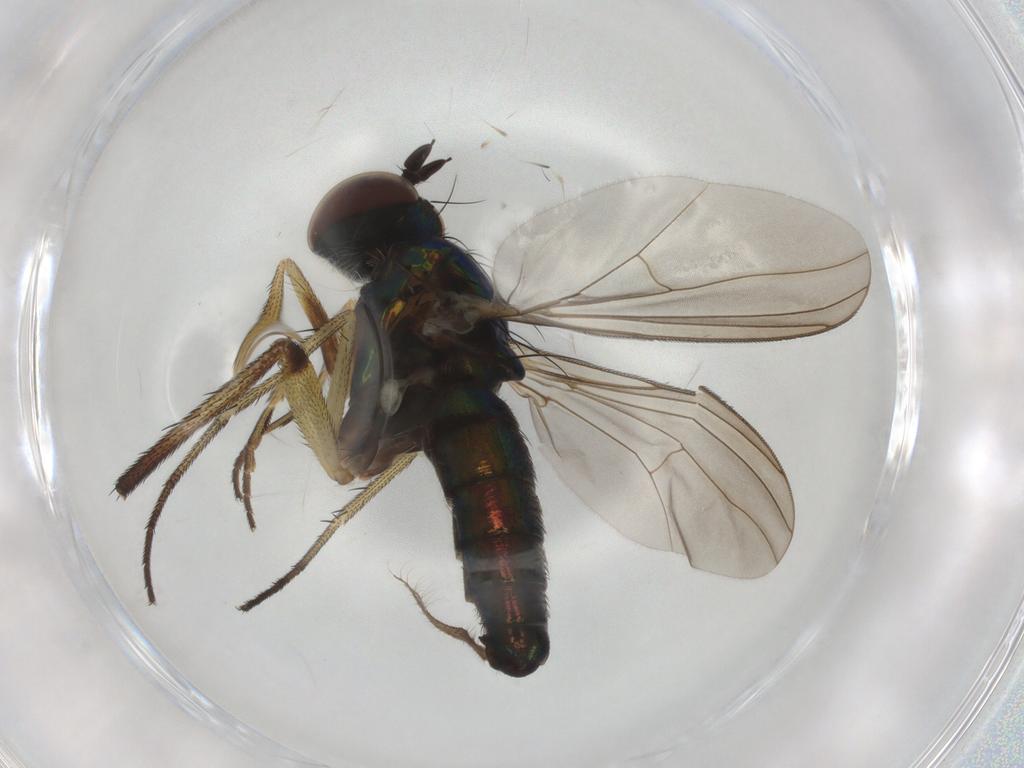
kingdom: Animalia
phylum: Arthropoda
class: Insecta
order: Diptera
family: Dolichopodidae
